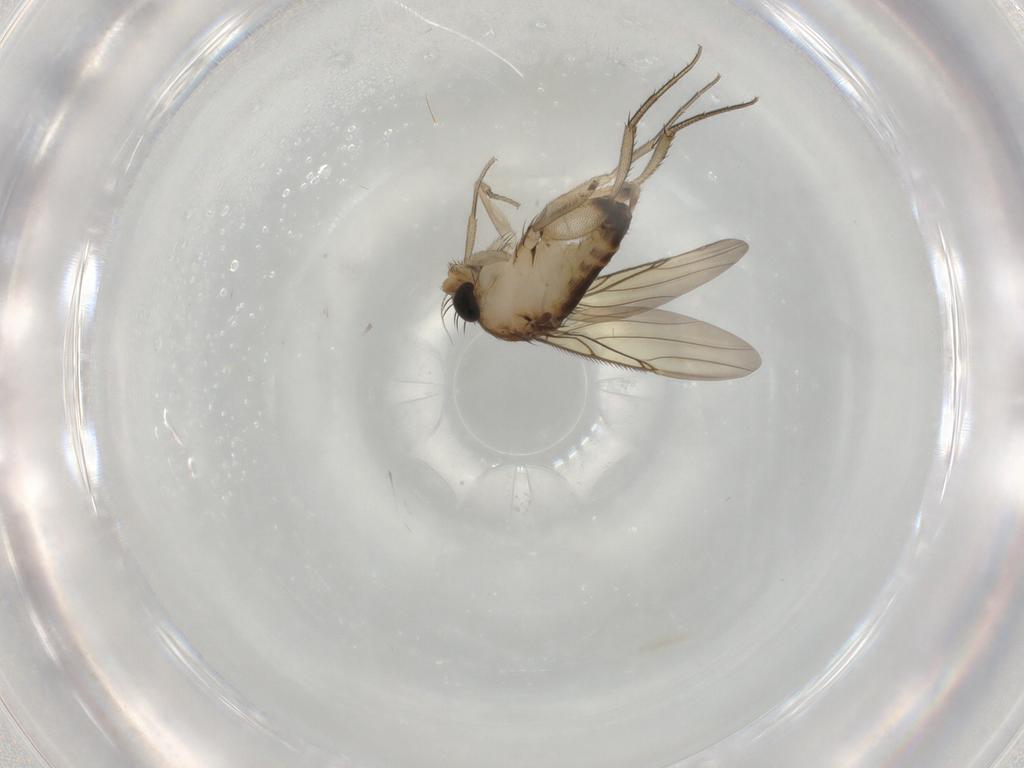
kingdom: Animalia
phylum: Arthropoda
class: Insecta
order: Diptera
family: Phoridae
